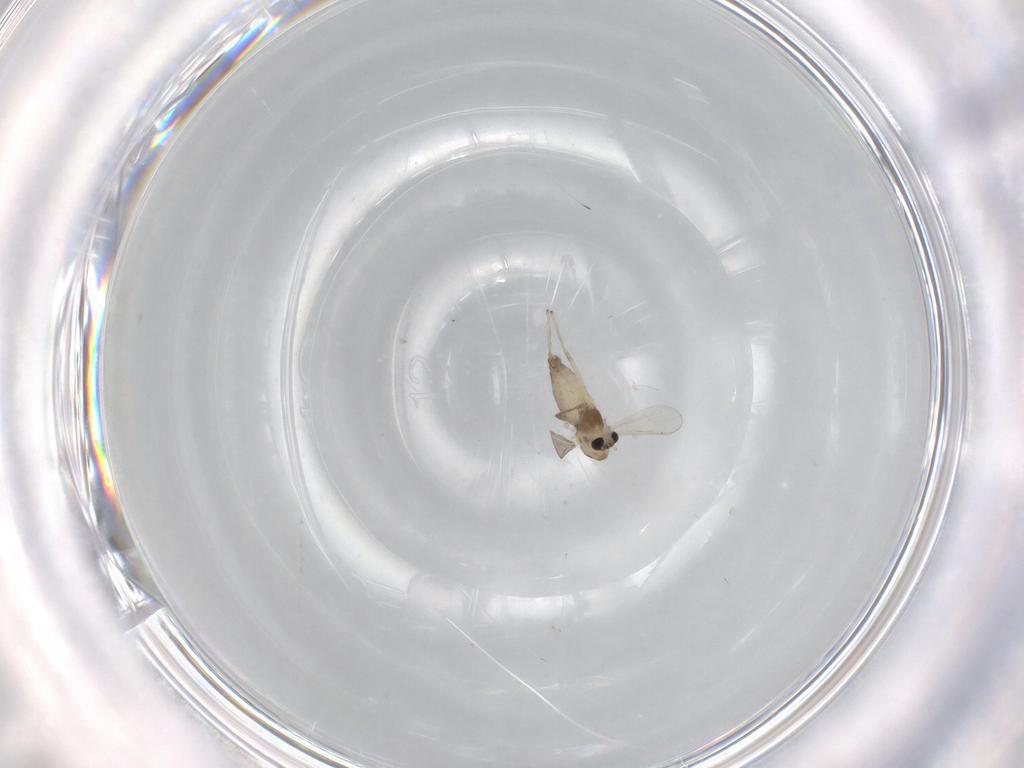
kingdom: Animalia
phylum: Arthropoda
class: Insecta
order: Diptera
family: Chironomidae
